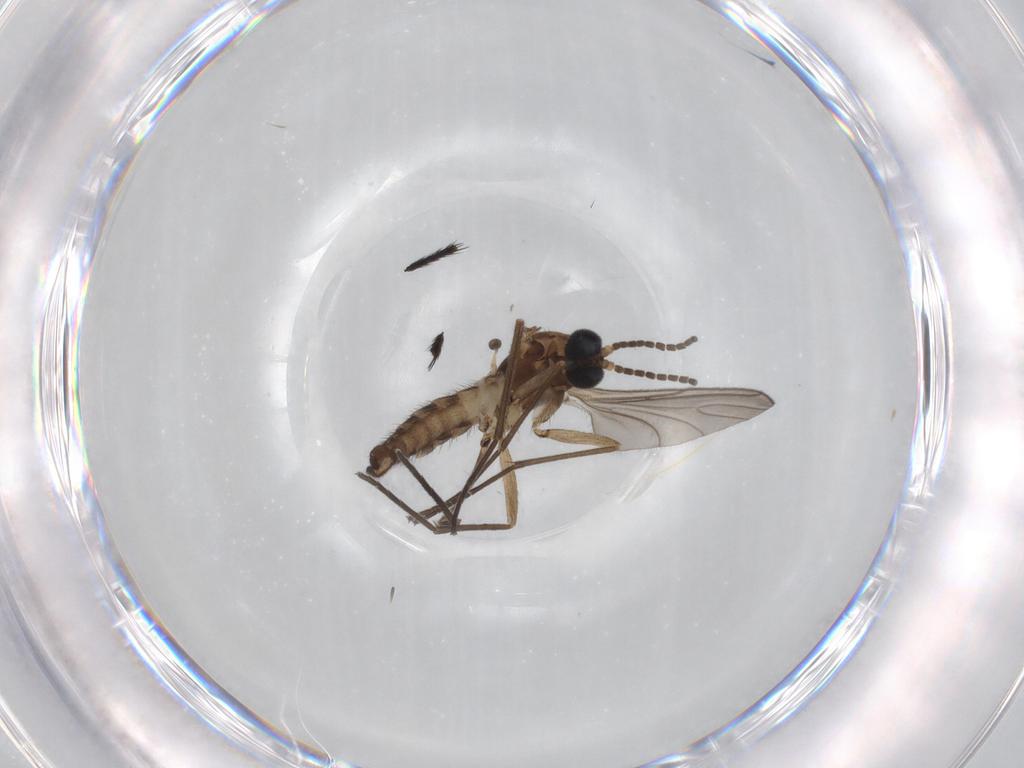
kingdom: Animalia
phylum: Arthropoda
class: Insecta
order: Diptera
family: Sciaridae
